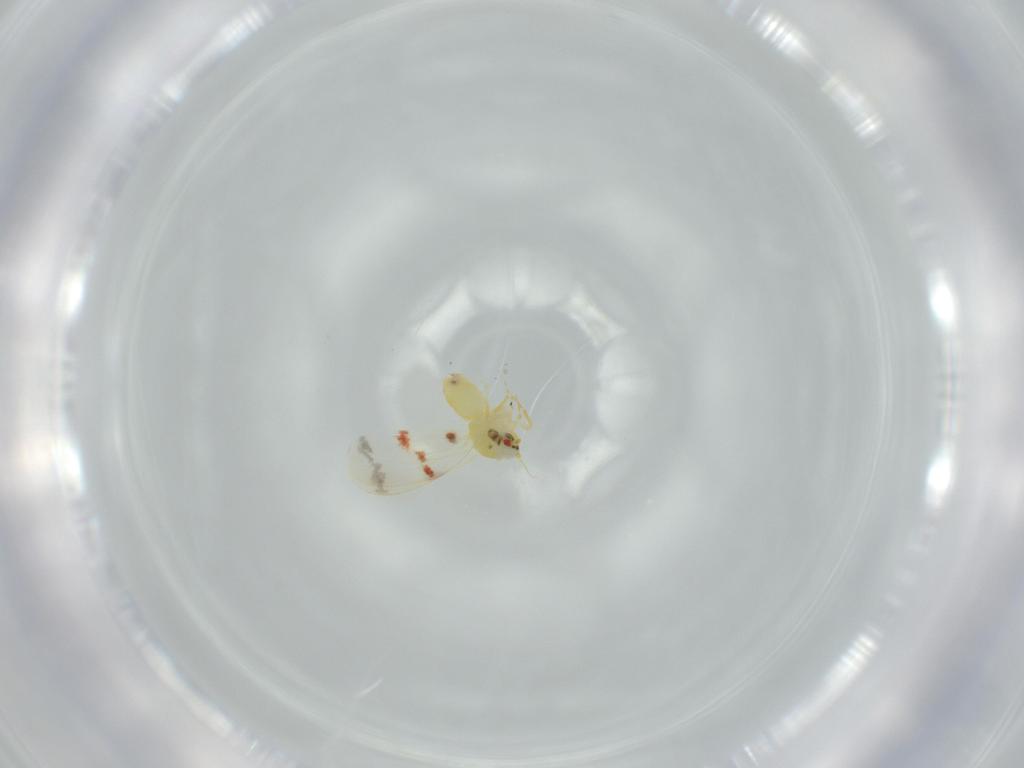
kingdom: Animalia
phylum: Arthropoda
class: Insecta
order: Hemiptera
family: Aleyrodidae
